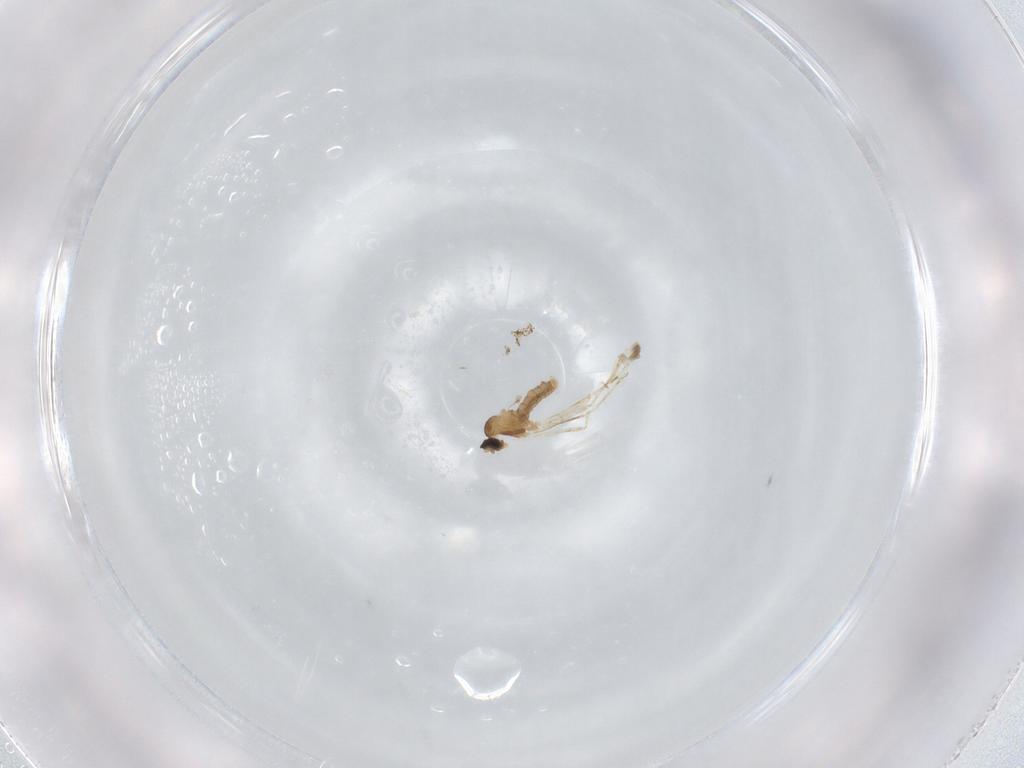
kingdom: Animalia
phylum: Arthropoda
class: Insecta
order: Diptera
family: Cecidomyiidae
